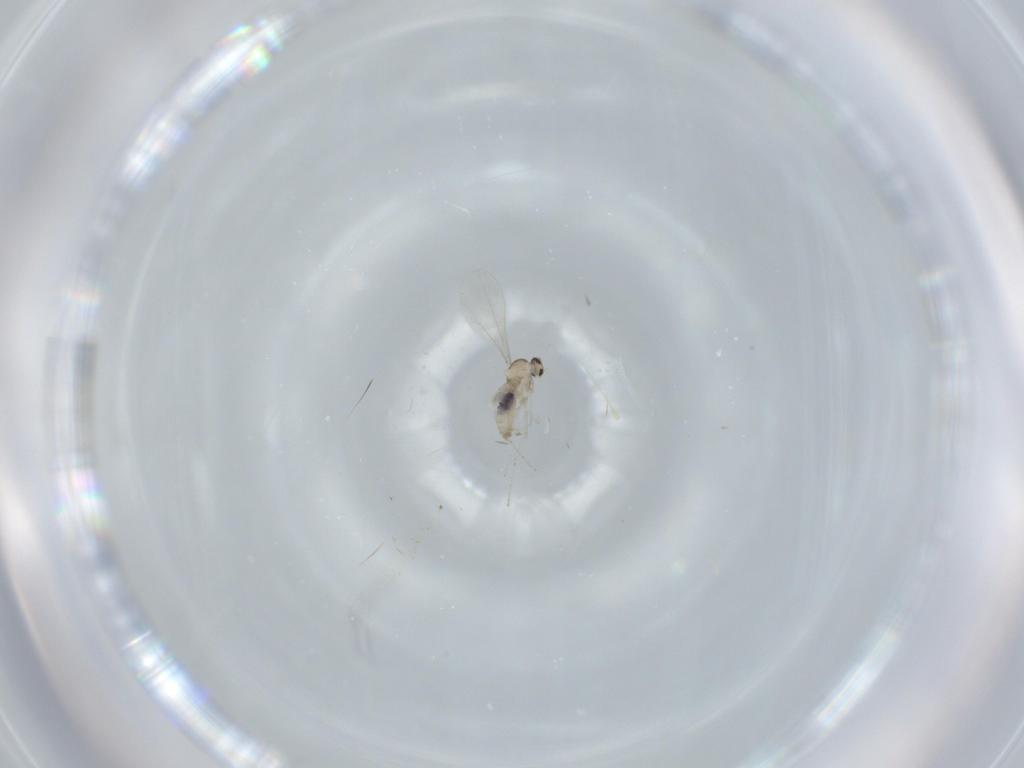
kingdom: Animalia
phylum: Arthropoda
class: Insecta
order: Diptera
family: Cecidomyiidae
